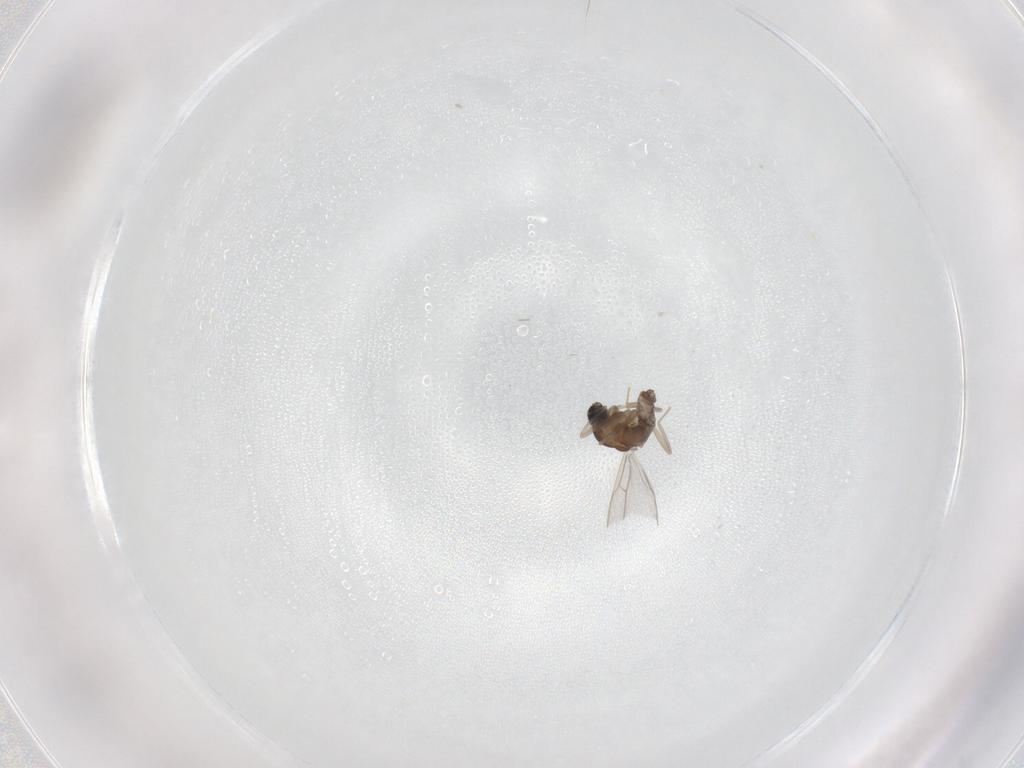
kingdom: Animalia
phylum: Arthropoda
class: Insecta
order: Diptera
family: Cecidomyiidae
